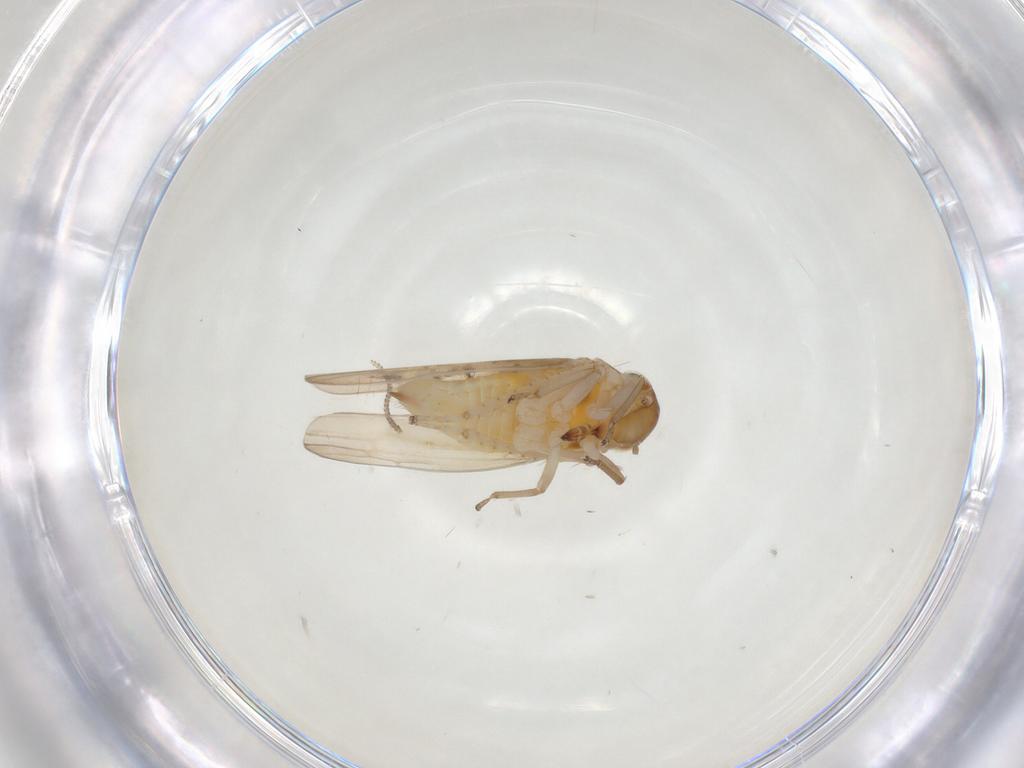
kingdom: Animalia
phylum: Arthropoda
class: Insecta
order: Hemiptera
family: Cicadellidae
